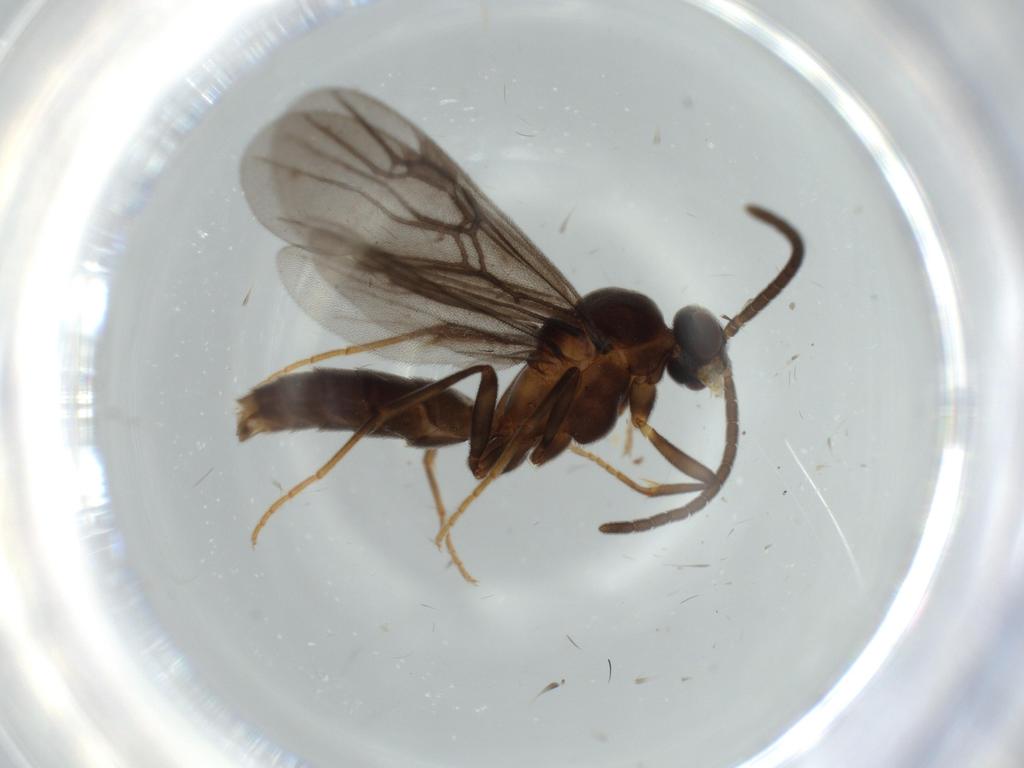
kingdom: Animalia
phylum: Arthropoda
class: Insecta
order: Hymenoptera
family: Formicidae
